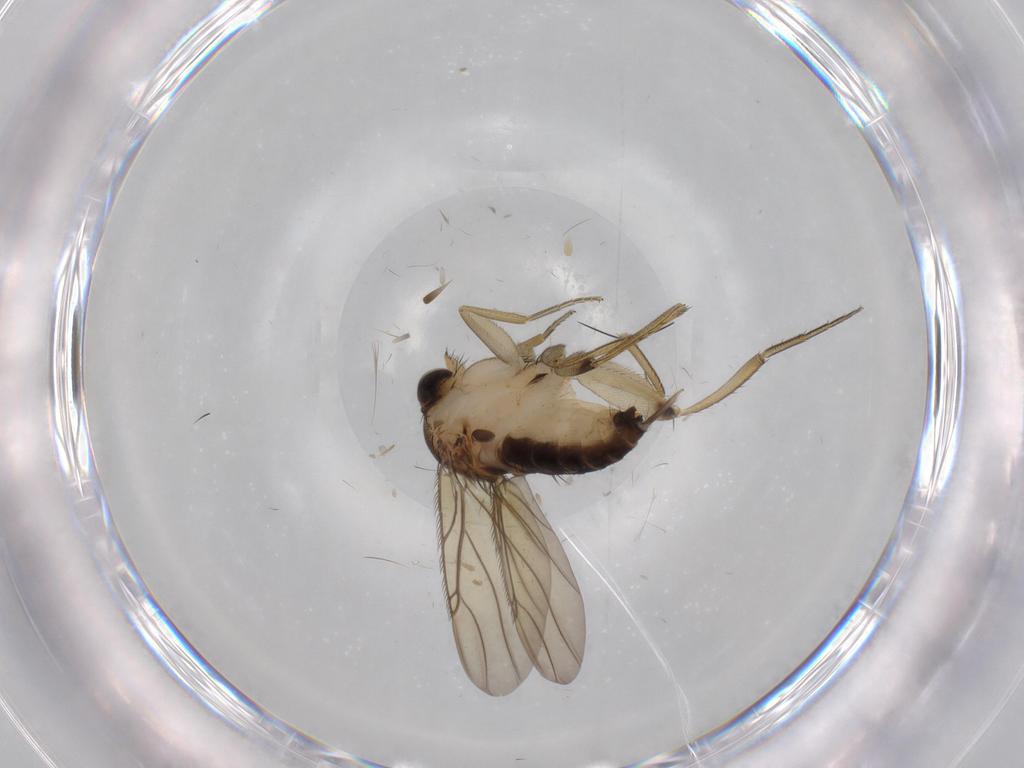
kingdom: Animalia
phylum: Arthropoda
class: Insecta
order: Diptera
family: Phoridae
